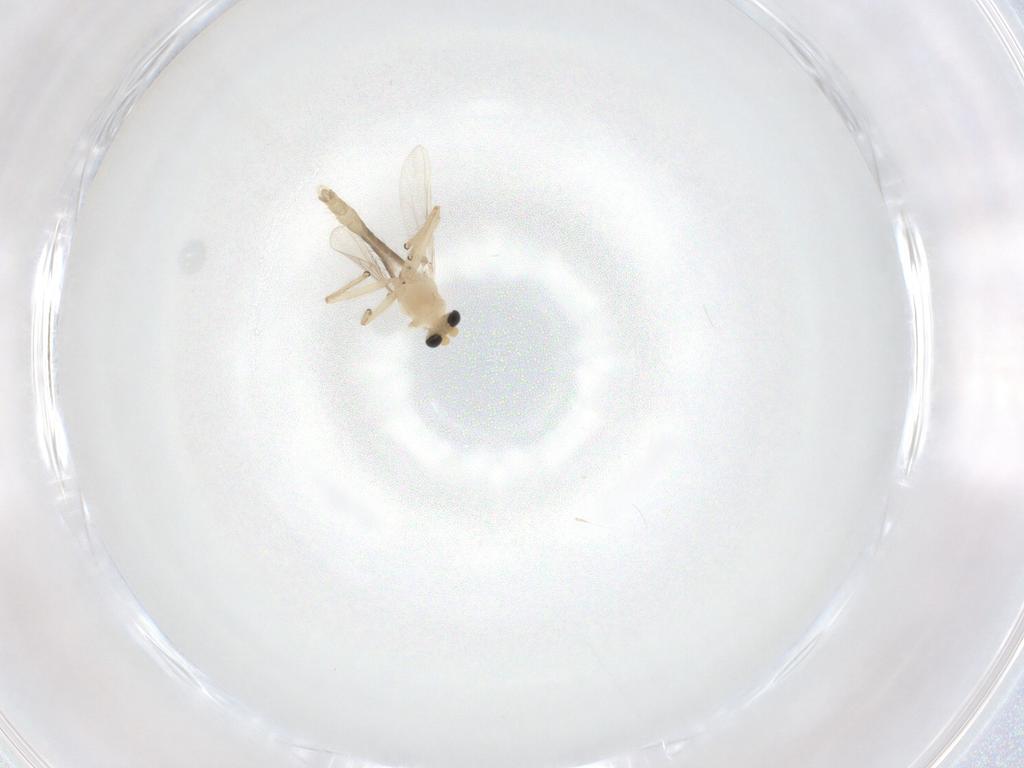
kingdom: Animalia
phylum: Arthropoda
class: Insecta
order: Diptera
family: Chironomidae
